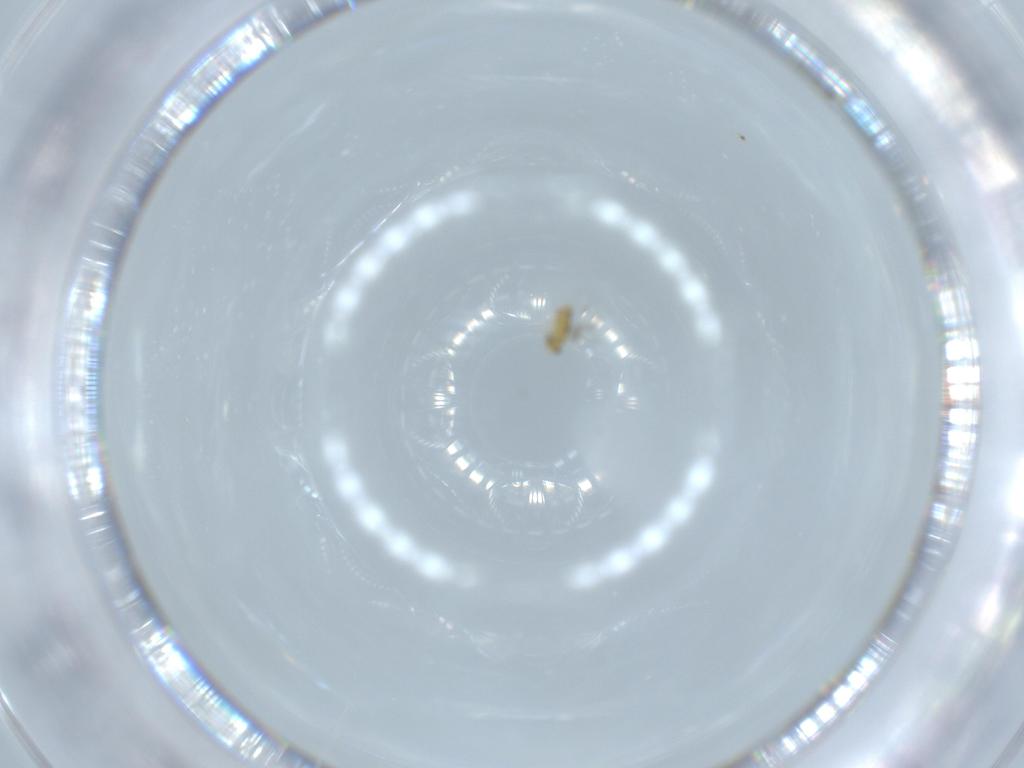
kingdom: Animalia
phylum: Arthropoda
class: Insecta
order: Hymenoptera
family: Signiphoridae
